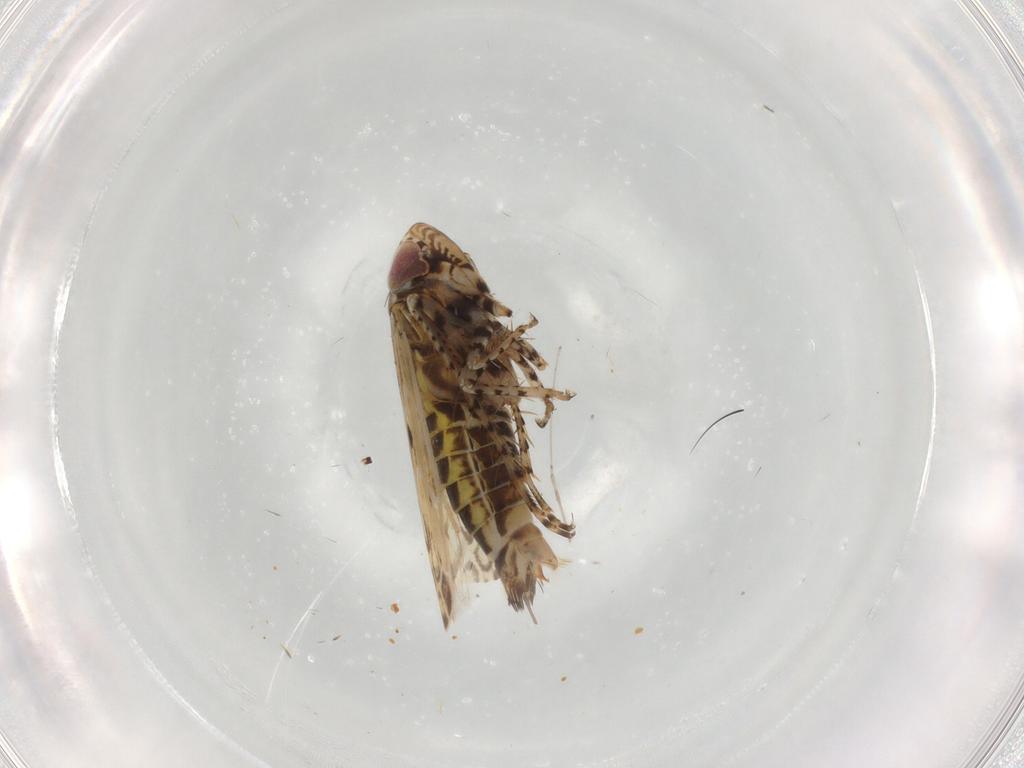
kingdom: Animalia
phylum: Arthropoda
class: Insecta
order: Hemiptera
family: Cicadellidae
